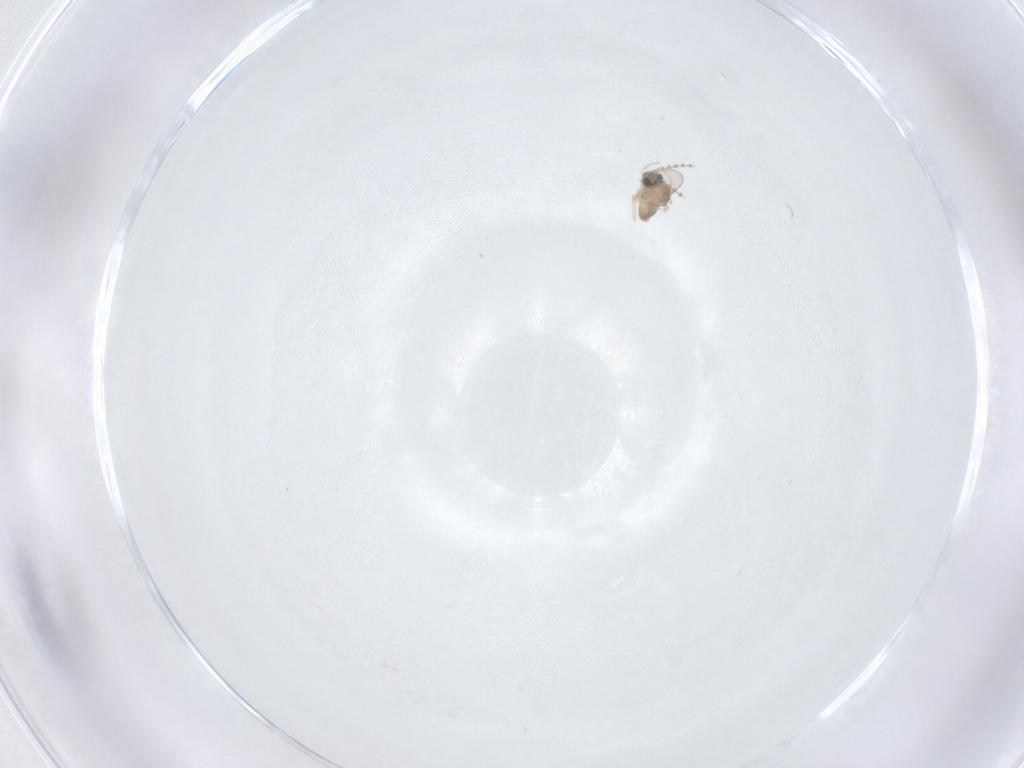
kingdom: Animalia
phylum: Arthropoda
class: Insecta
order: Diptera
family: Cecidomyiidae
